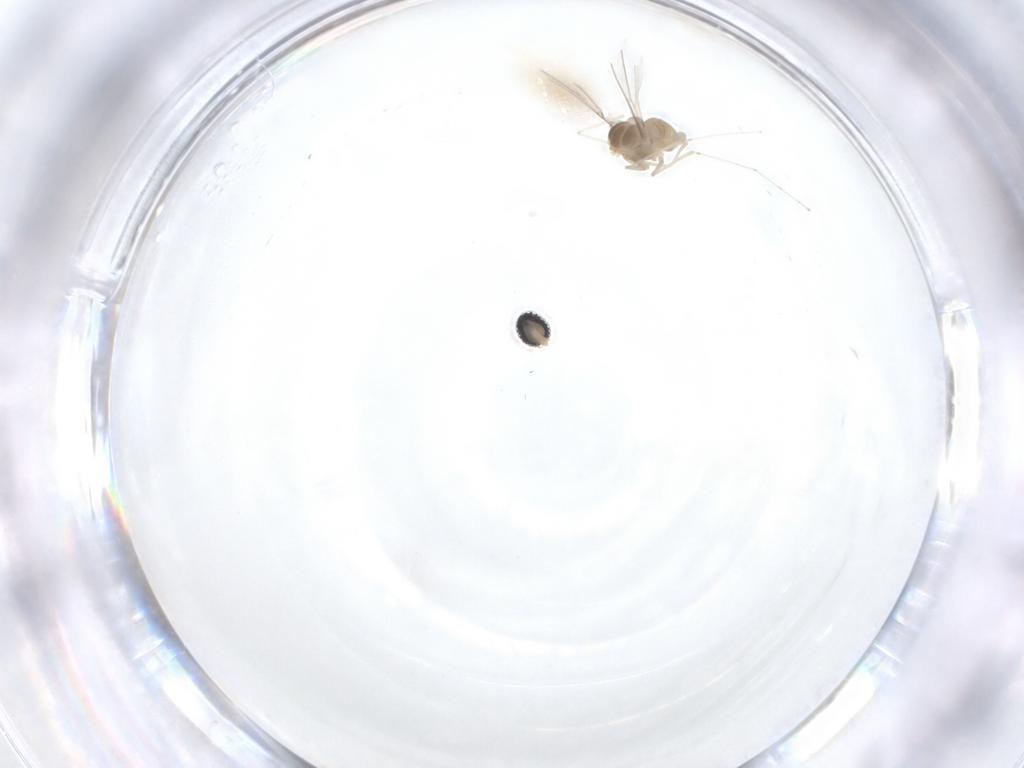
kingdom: Animalia
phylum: Arthropoda
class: Insecta
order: Diptera
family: Cecidomyiidae
